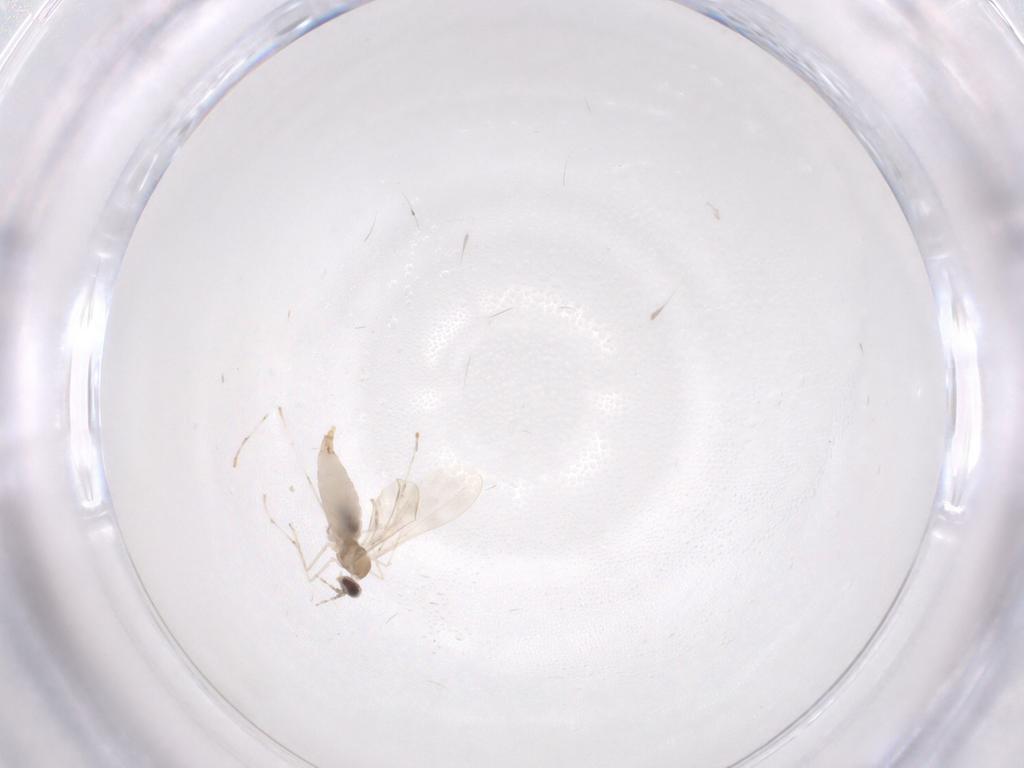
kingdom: Animalia
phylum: Arthropoda
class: Insecta
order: Diptera
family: Cecidomyiidae
